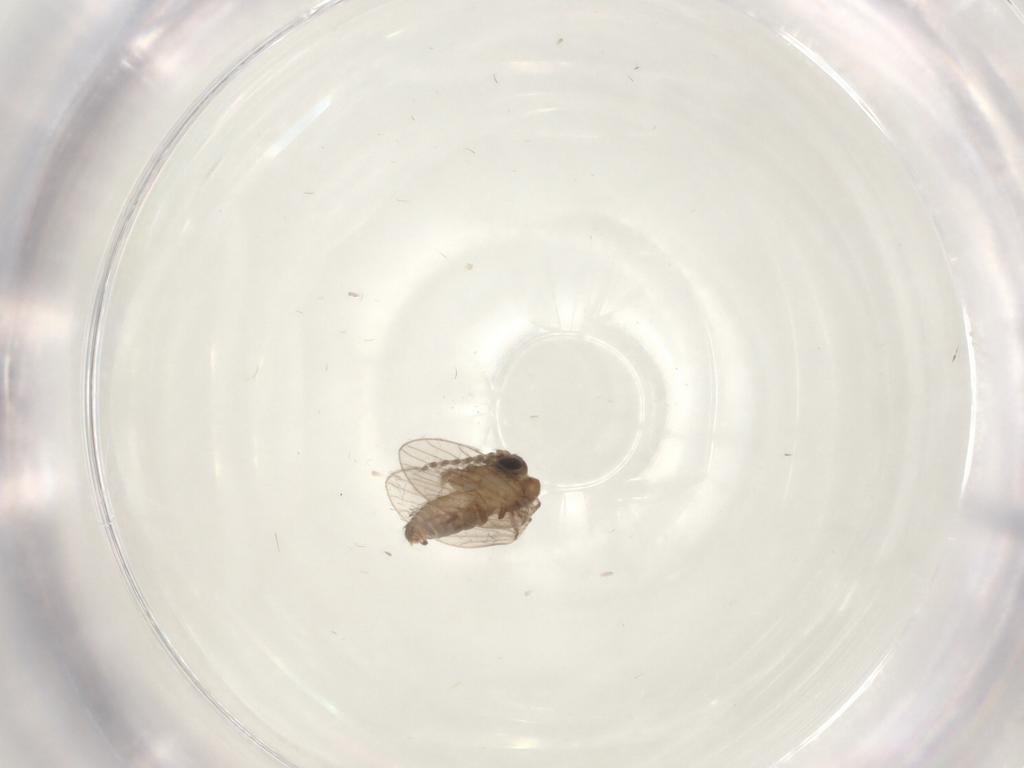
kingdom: Animalia
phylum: Arthropoda
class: Insecta
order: Diptera
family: Psychodidae
